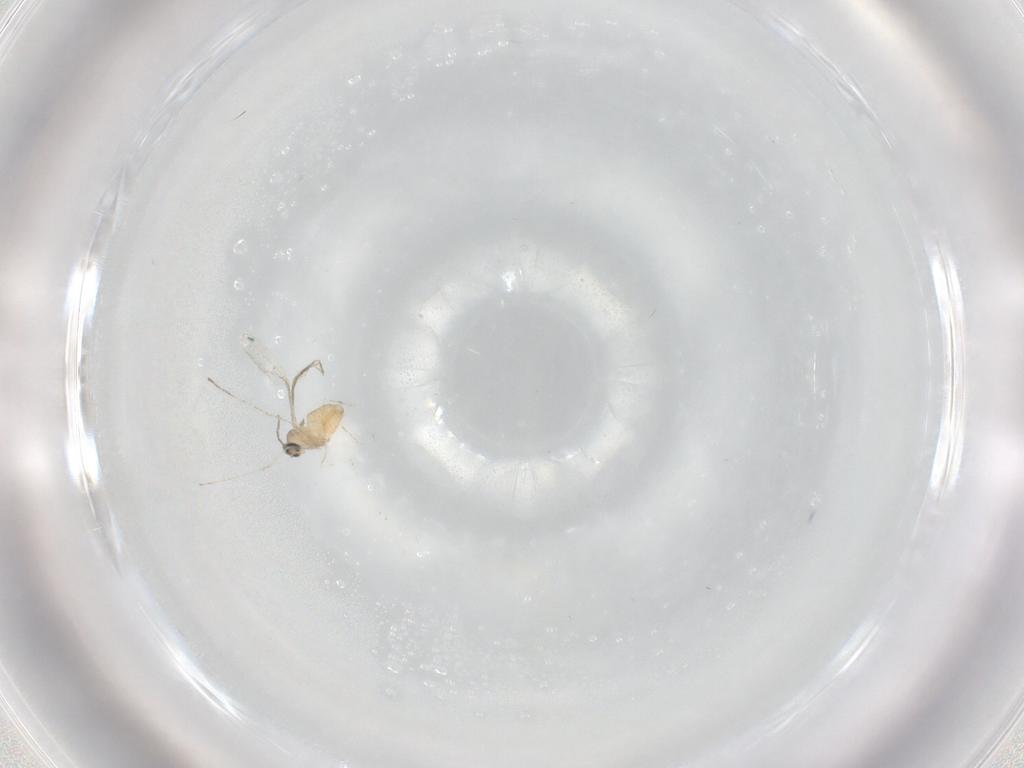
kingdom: Animalia
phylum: Arthropoda
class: Insecta
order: Diptera
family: Cecidomyiidae
